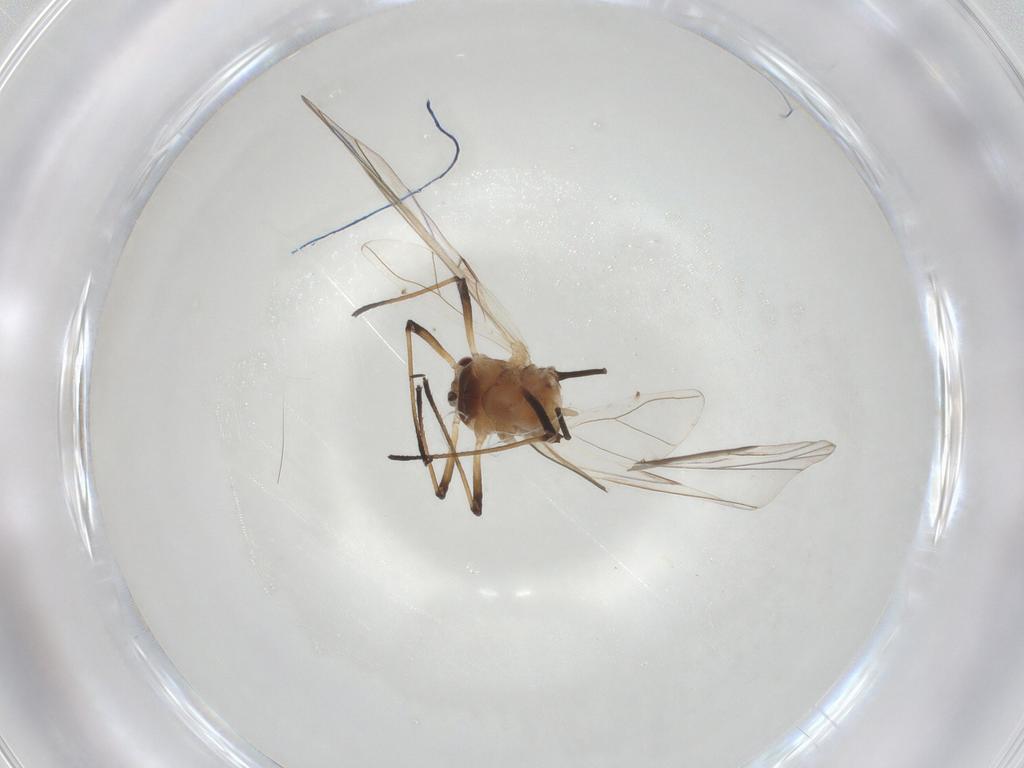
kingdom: Animalia
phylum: Arthropoda
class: Insecta
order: Hemiptera
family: Aphididae
